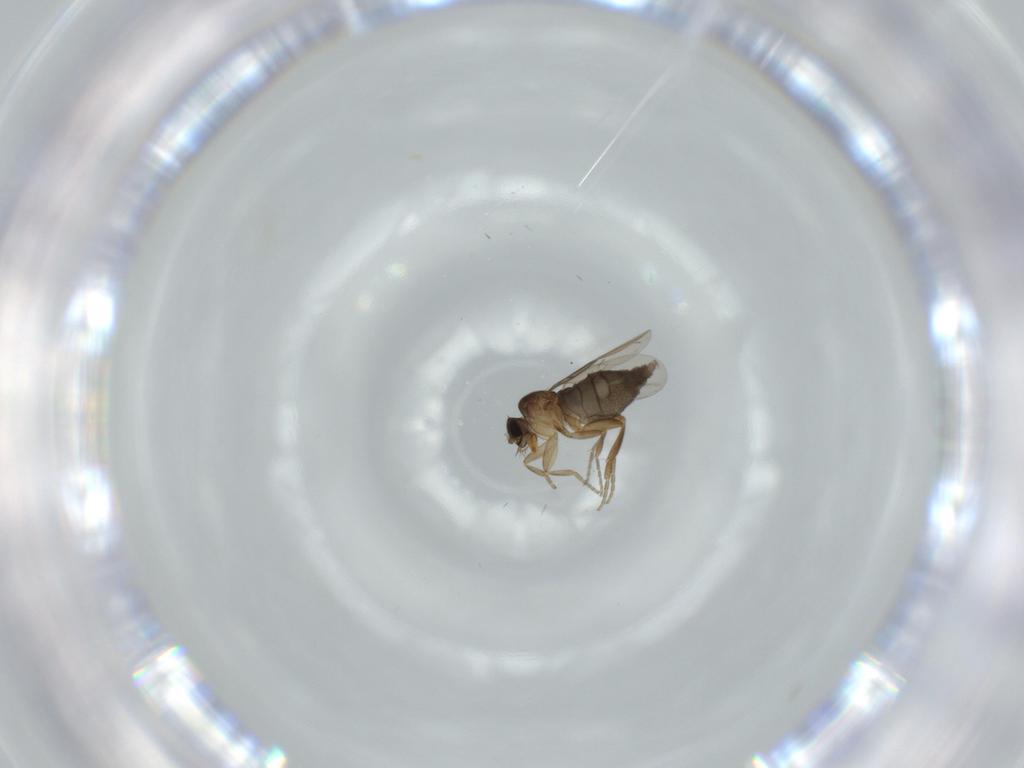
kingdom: Animalia
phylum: Arthropoda
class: Insecta
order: Diptera
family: Phoridae
